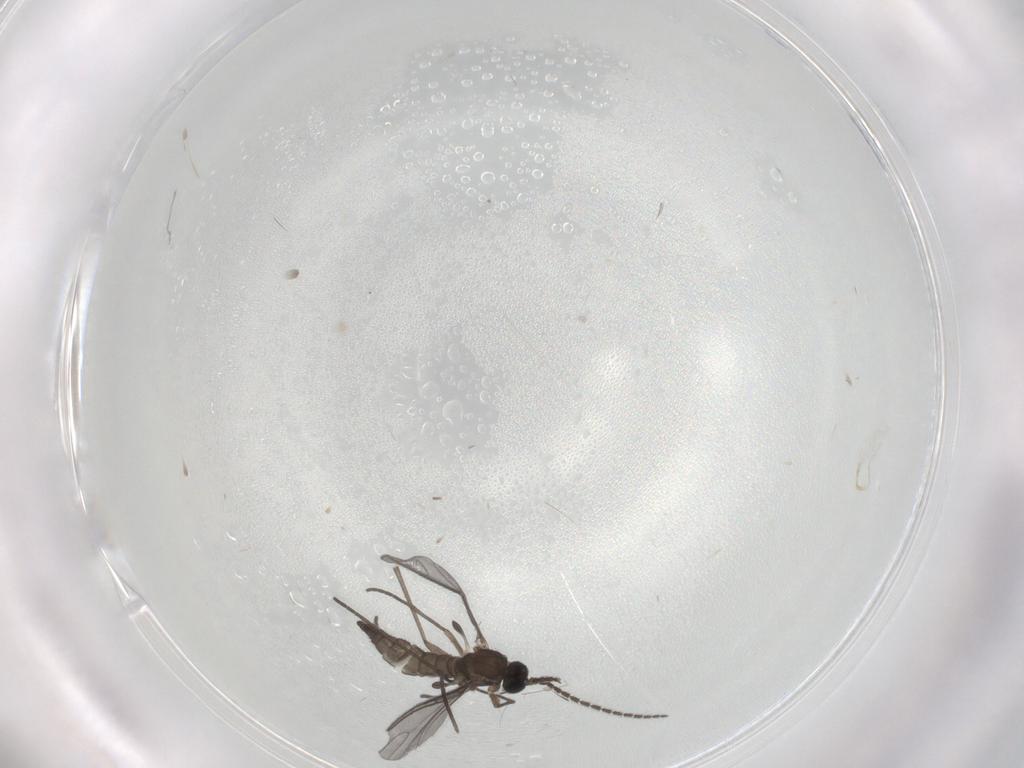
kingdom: Animalia
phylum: Arthropoda
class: Insecta
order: Diptera
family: Sciaridae
